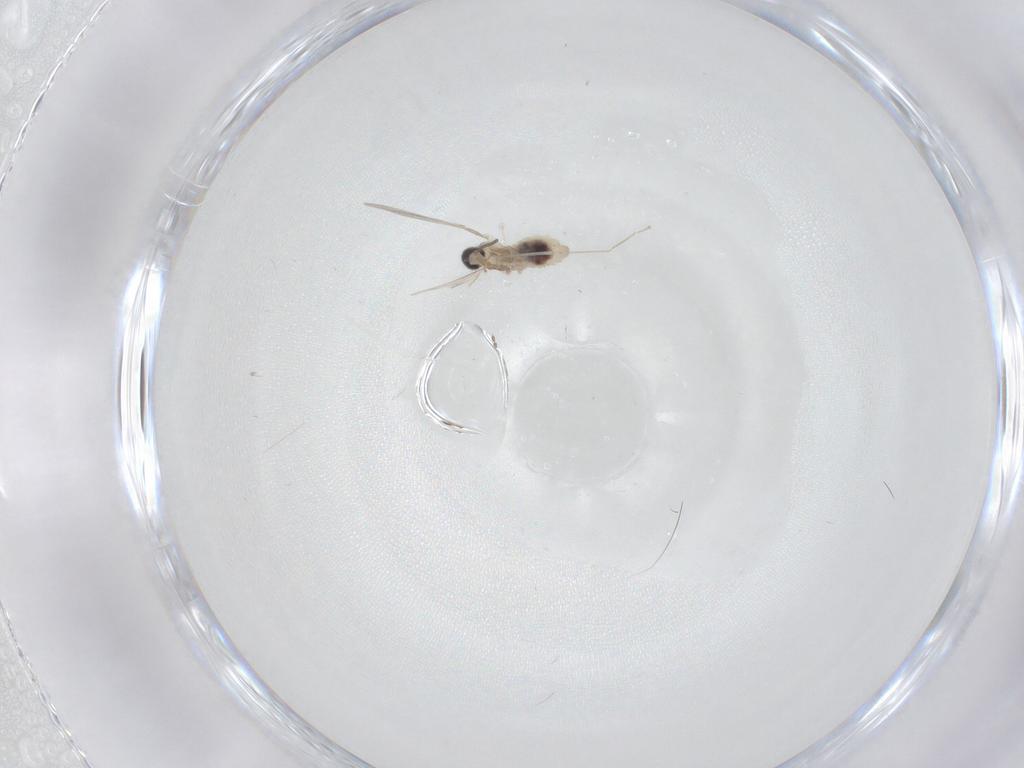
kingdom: Animalia
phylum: Arthropoda
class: Insecta
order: Diptera
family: Cecidomyiidae
